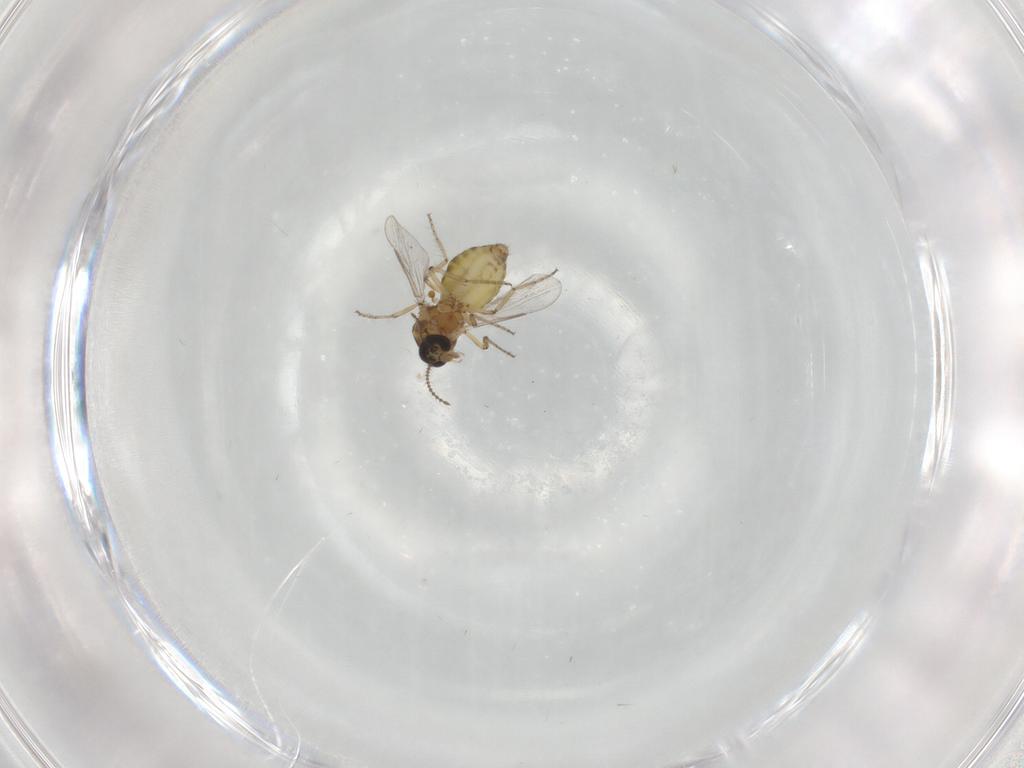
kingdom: Animalia
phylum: Arthropoda
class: Insecta
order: Diptera
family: Ceratopogonidae
